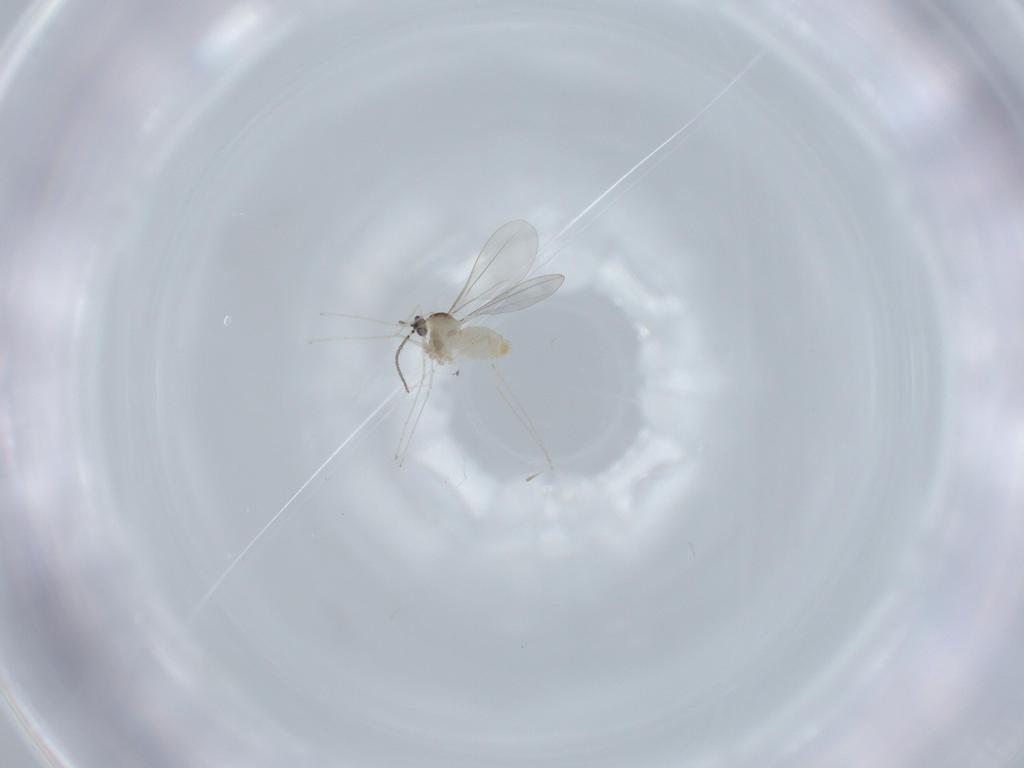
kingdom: Animalia
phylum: Arthropoda
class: Insecta
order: Diptera
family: Cecidomyiidae
